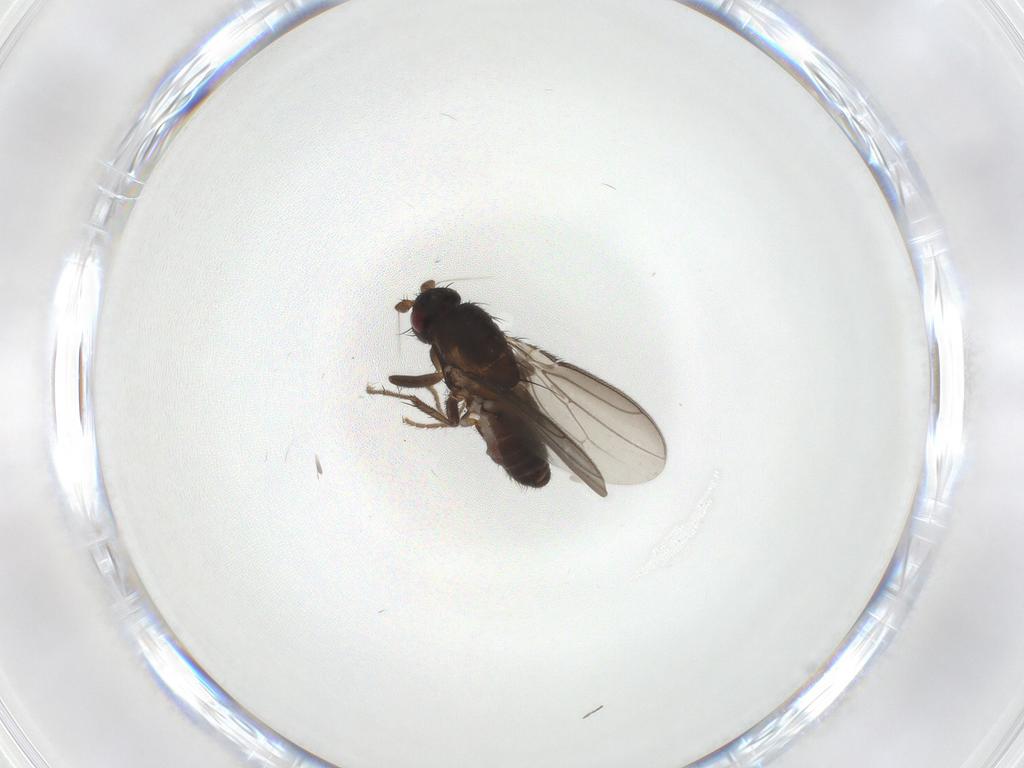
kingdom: Animalia
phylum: Arthropoda
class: Insecta
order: Diptera
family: Sphaeroceridae
